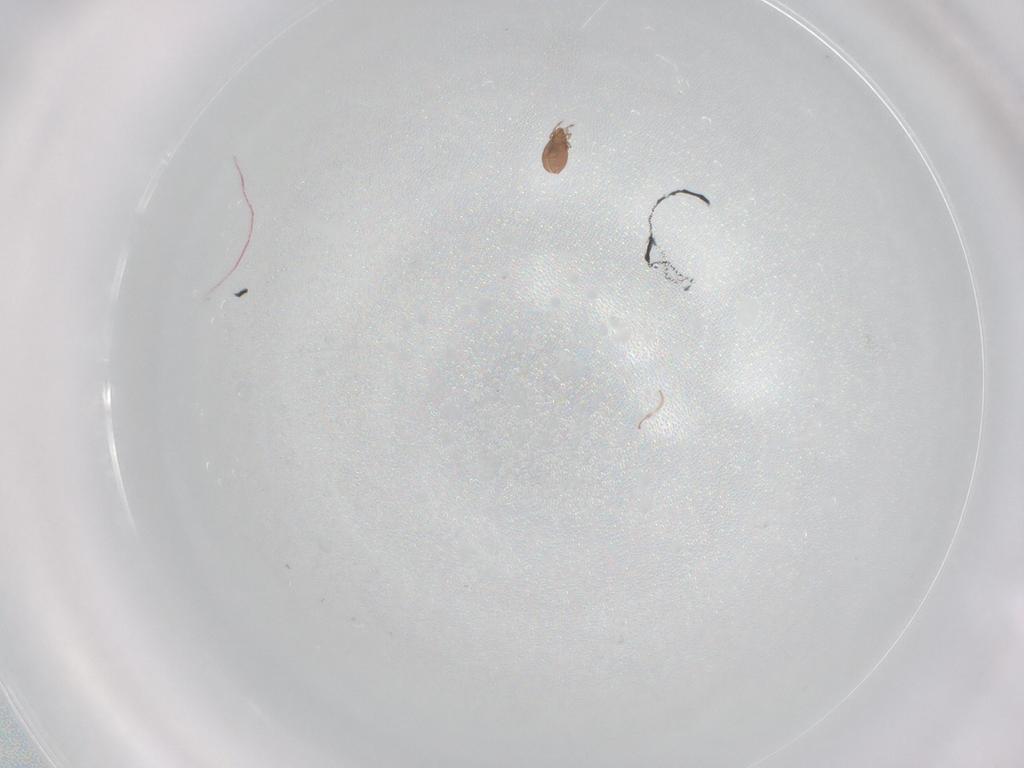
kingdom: Animalia
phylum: Arthropoda
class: Arachnida
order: Sarcoptiformes
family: Oribatulidae
